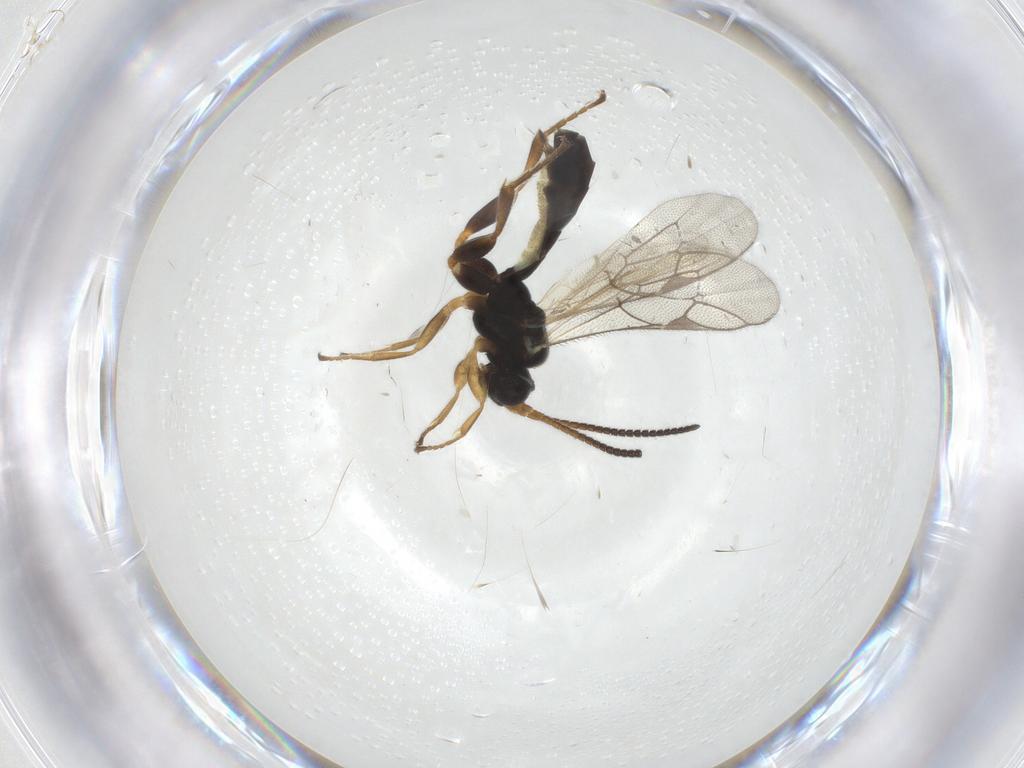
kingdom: Animalia
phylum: Arthropoda
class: Insecta
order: Hymenoptera
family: Ichneumonidae
